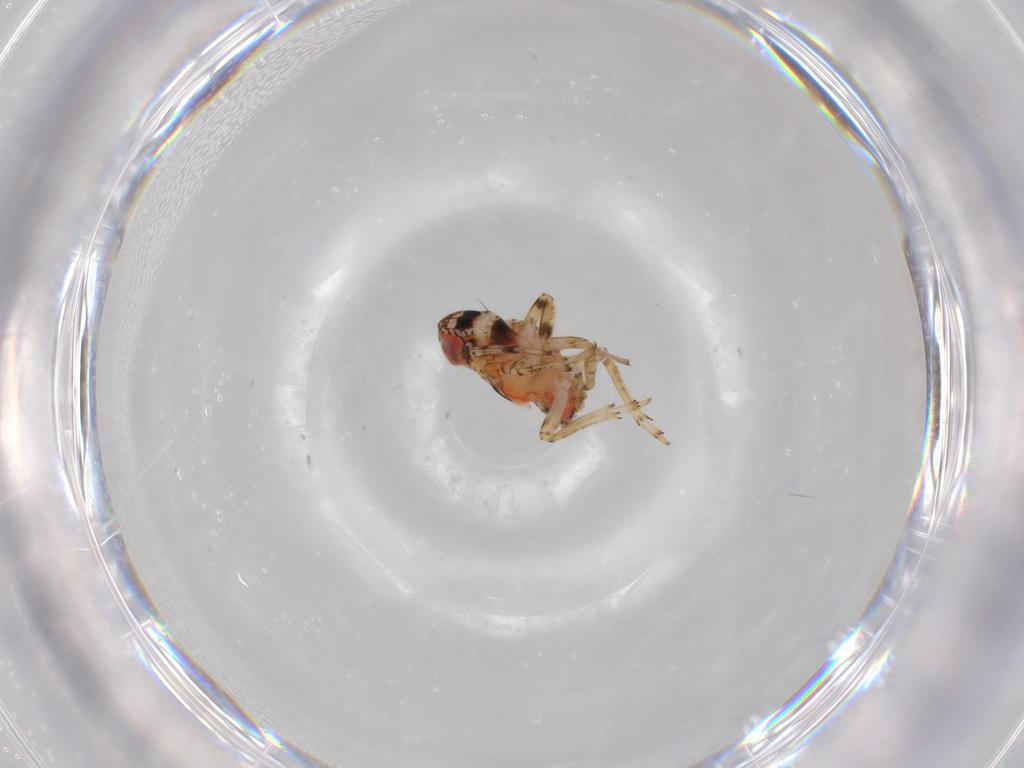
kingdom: Animalia
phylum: Arthropoda
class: Insecta
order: Hemiptera
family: Issidae
